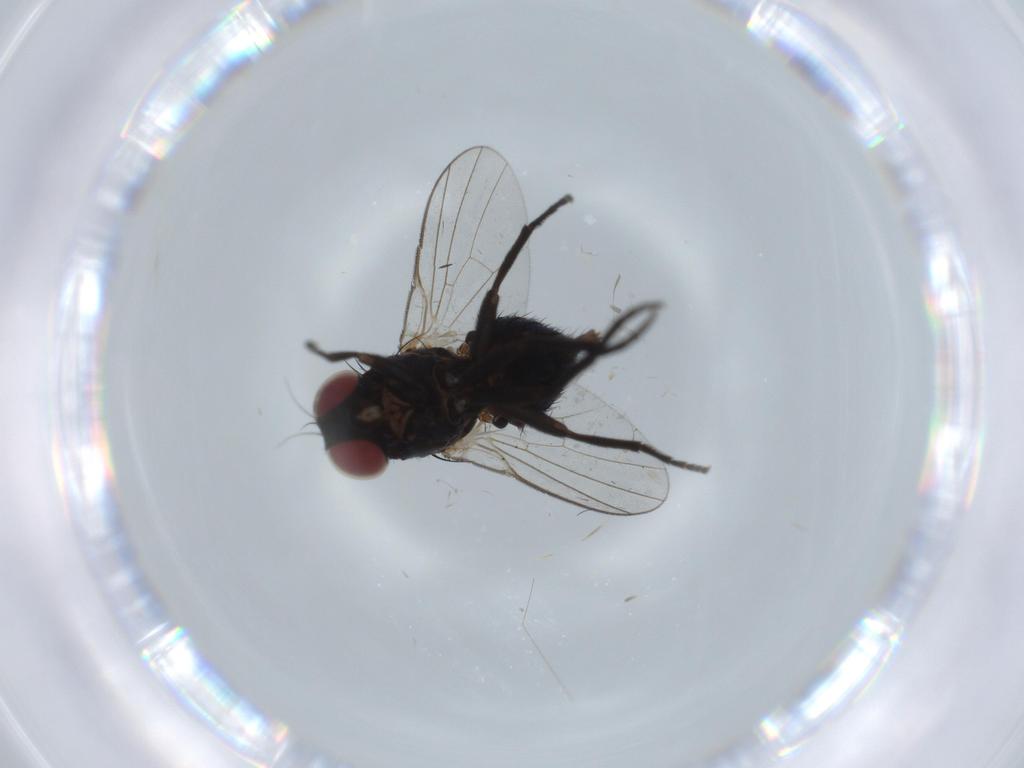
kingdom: Animalia
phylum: Arthropoda
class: Insecta
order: Diptera
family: Agromyzidae
